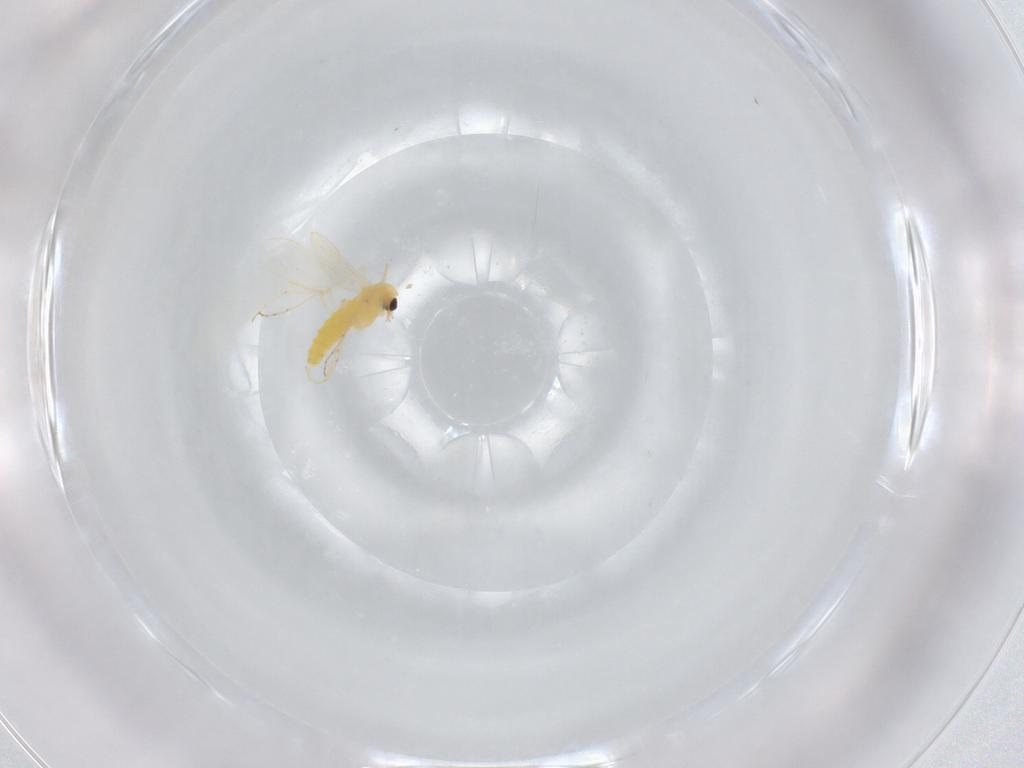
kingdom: Animalia
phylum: Arthropoda
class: Insecta
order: Diptera
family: Chironomidae
